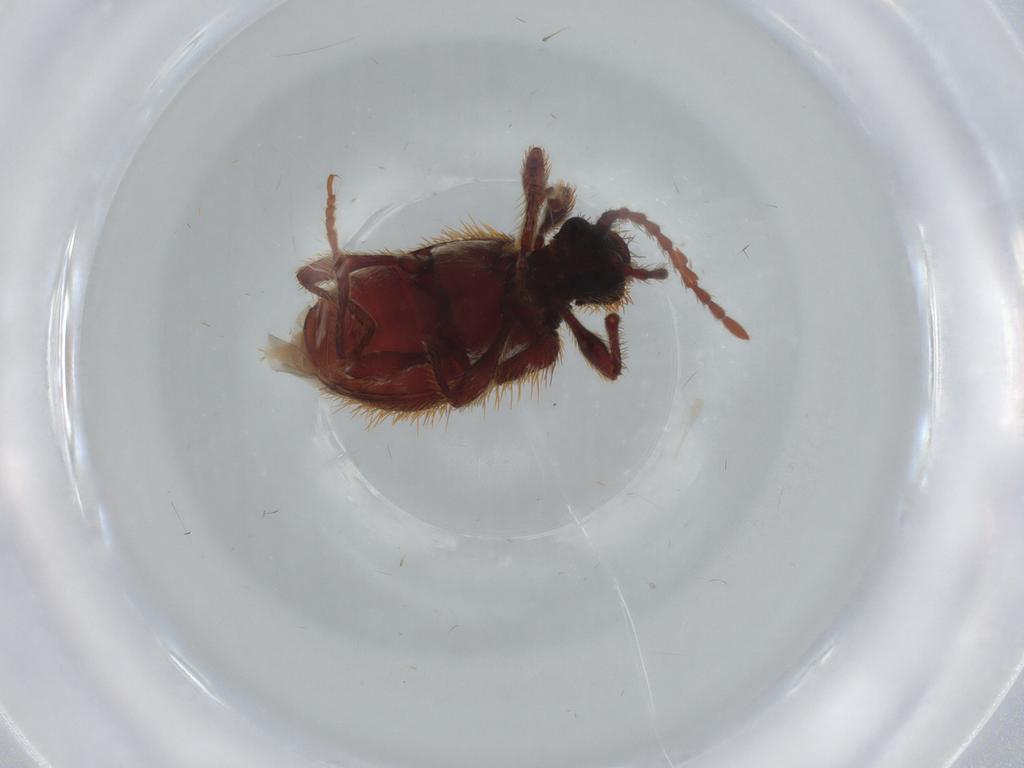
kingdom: Animalia
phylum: Arthropoda
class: Insecta
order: Coleoptera
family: Ptinidae
